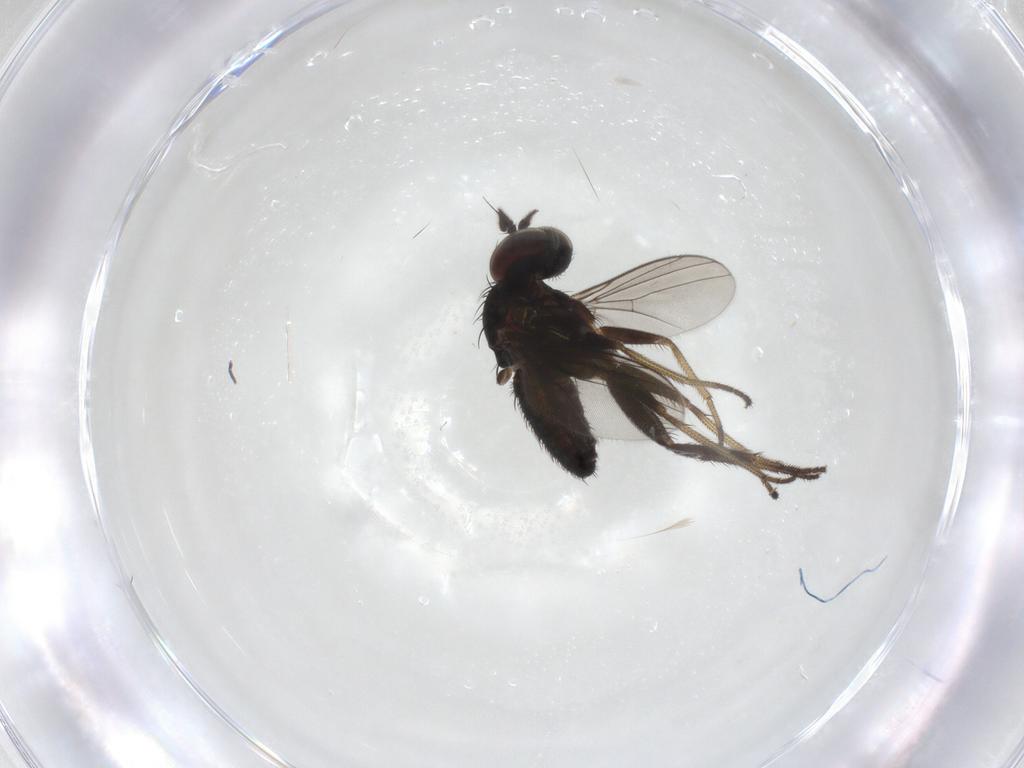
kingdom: Animalia
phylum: Arthropoda
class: Insecta
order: Diptera
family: Dolichopodidae
